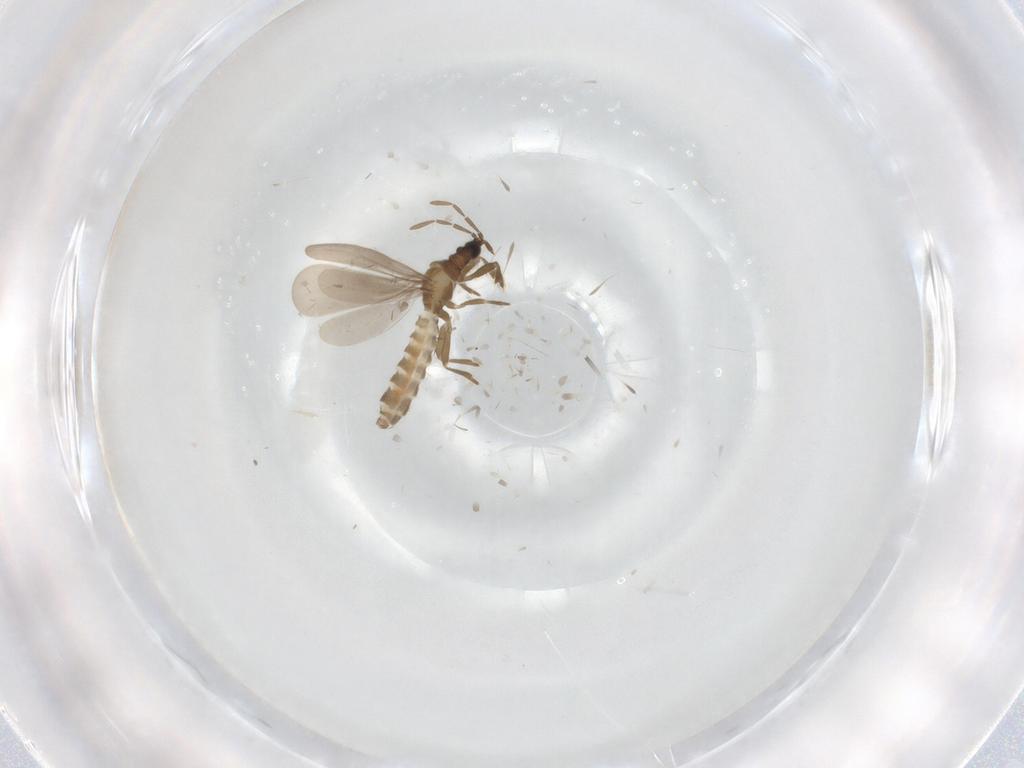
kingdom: Animalia
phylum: Arthropoda
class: Insecta
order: Hemiptera
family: Enicocephalidae
